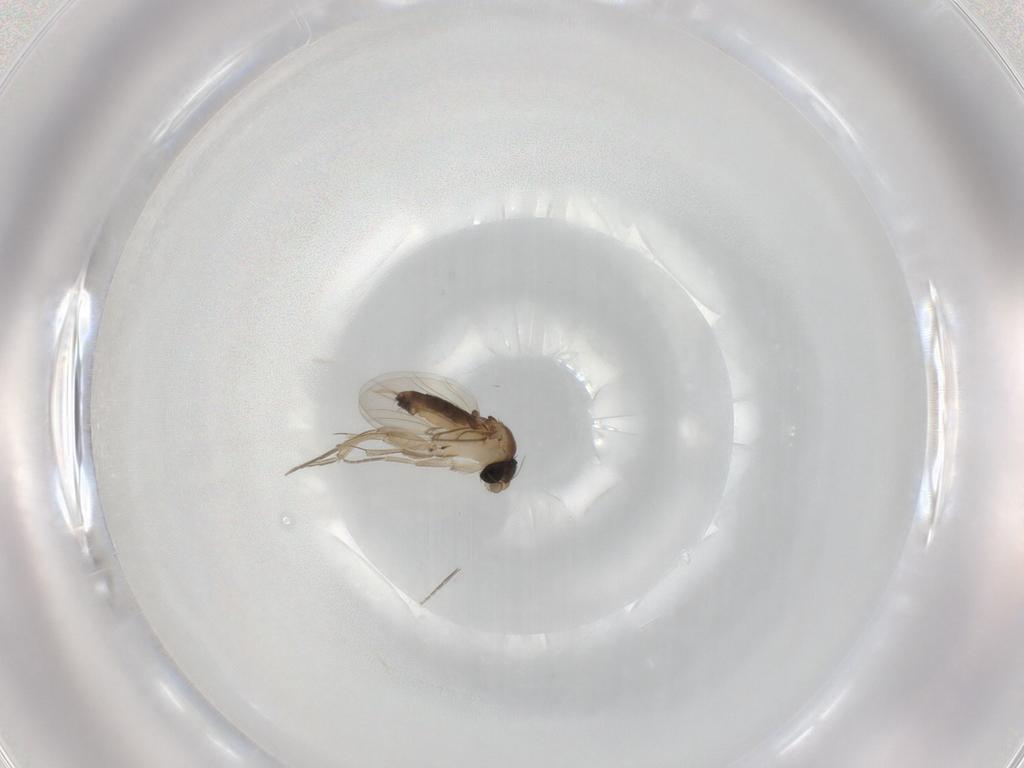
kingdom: Animalia
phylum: Arthropoda
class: Insecta
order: Diptera
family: Phoridae
